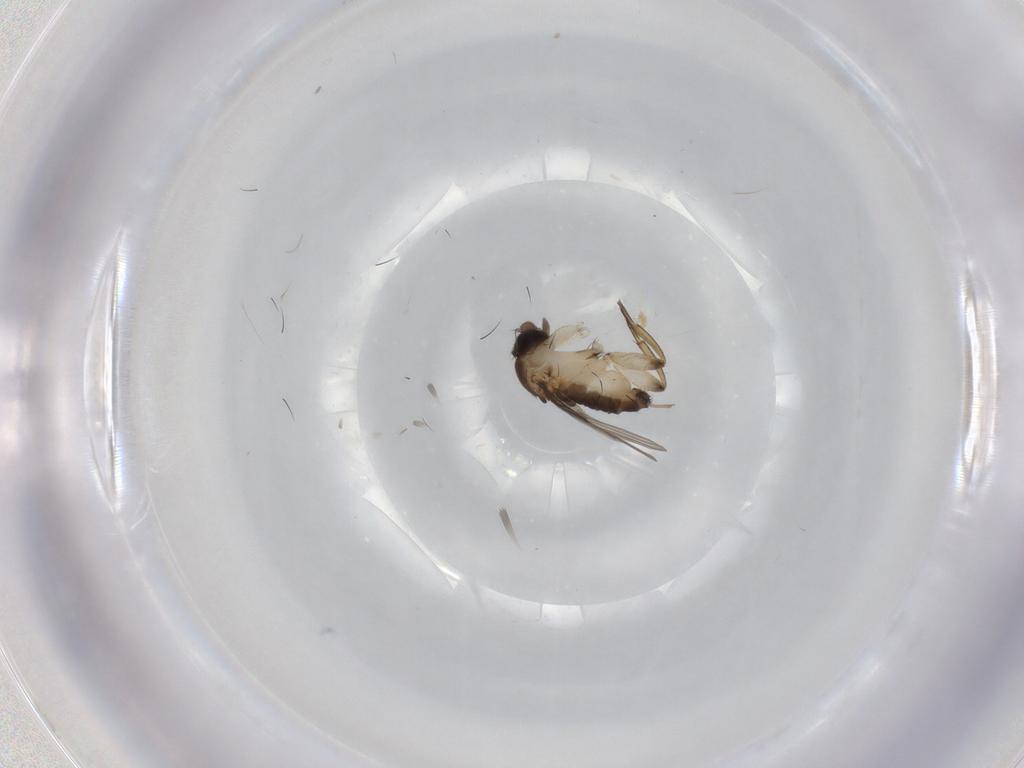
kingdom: Animalia
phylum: Arthropoda
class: Insecta
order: Diptera
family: Phoridae
